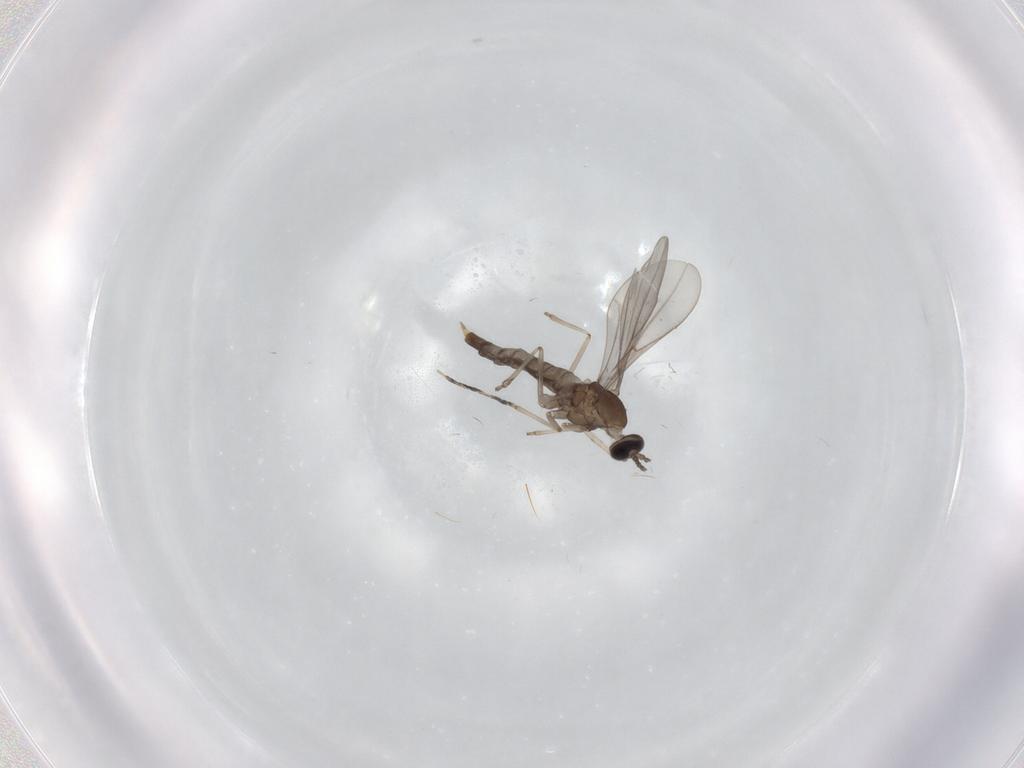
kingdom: Animalia
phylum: Arthropoda
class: Insecta
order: Diptera
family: Cecidomyiidae
